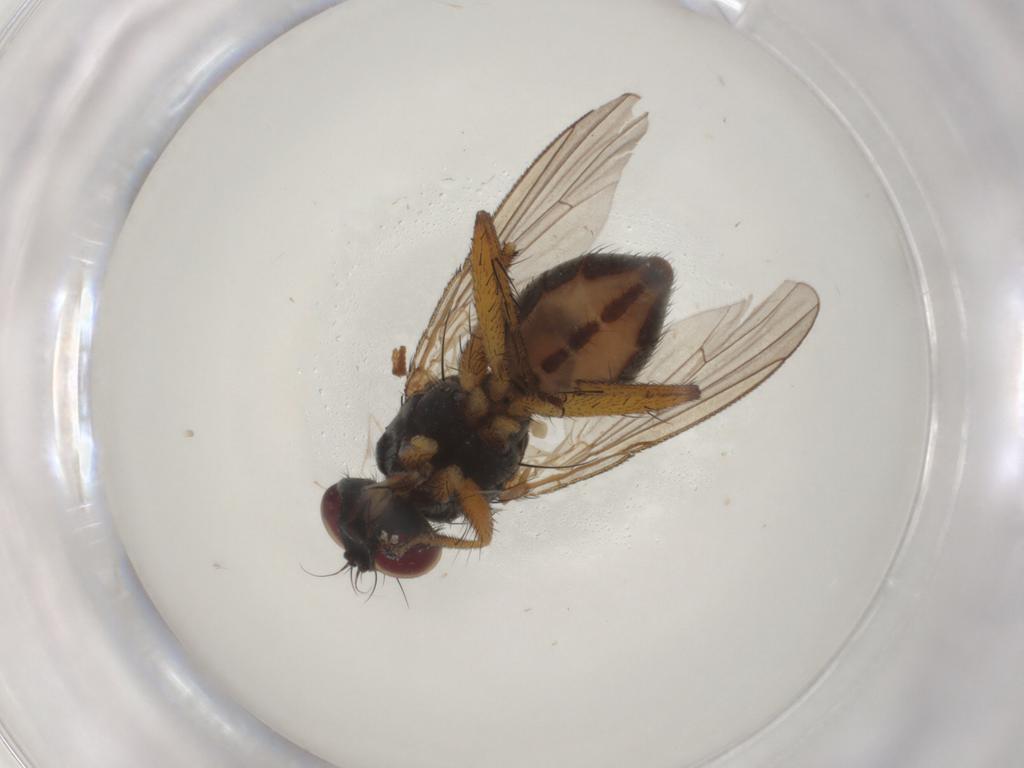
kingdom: Animalia
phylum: Arthropoda
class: Insecta
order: Diptera
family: Muscidae
